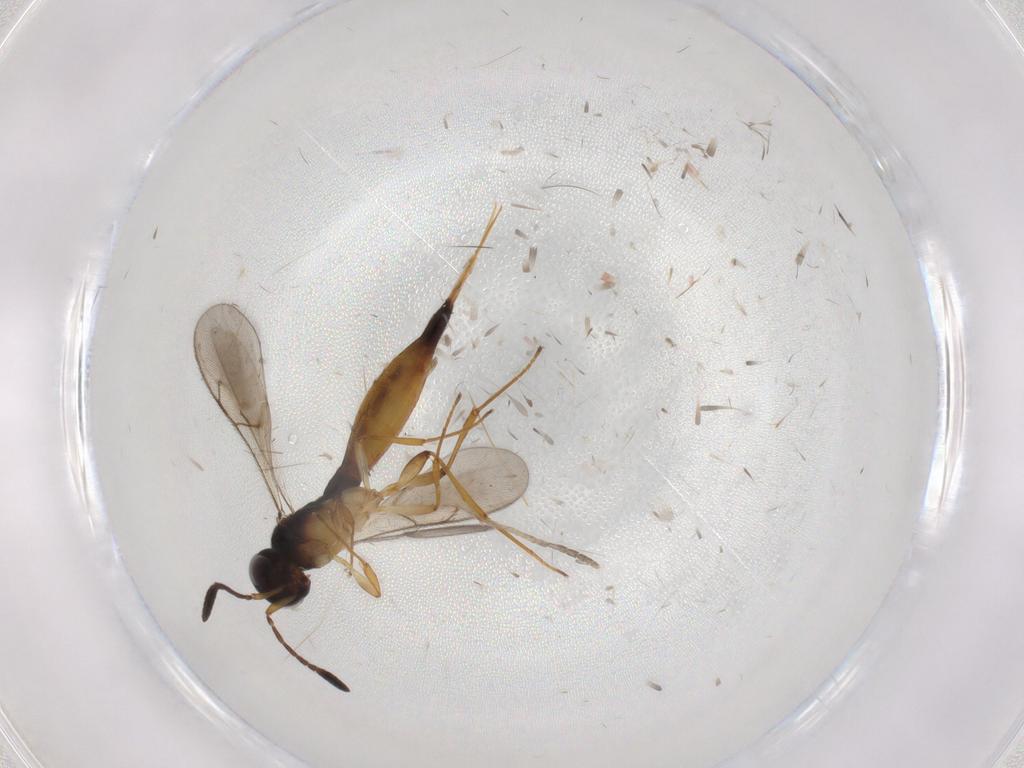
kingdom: Animalia
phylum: Arthropoda
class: Insecta
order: Hymenoptera
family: Scelionidae
